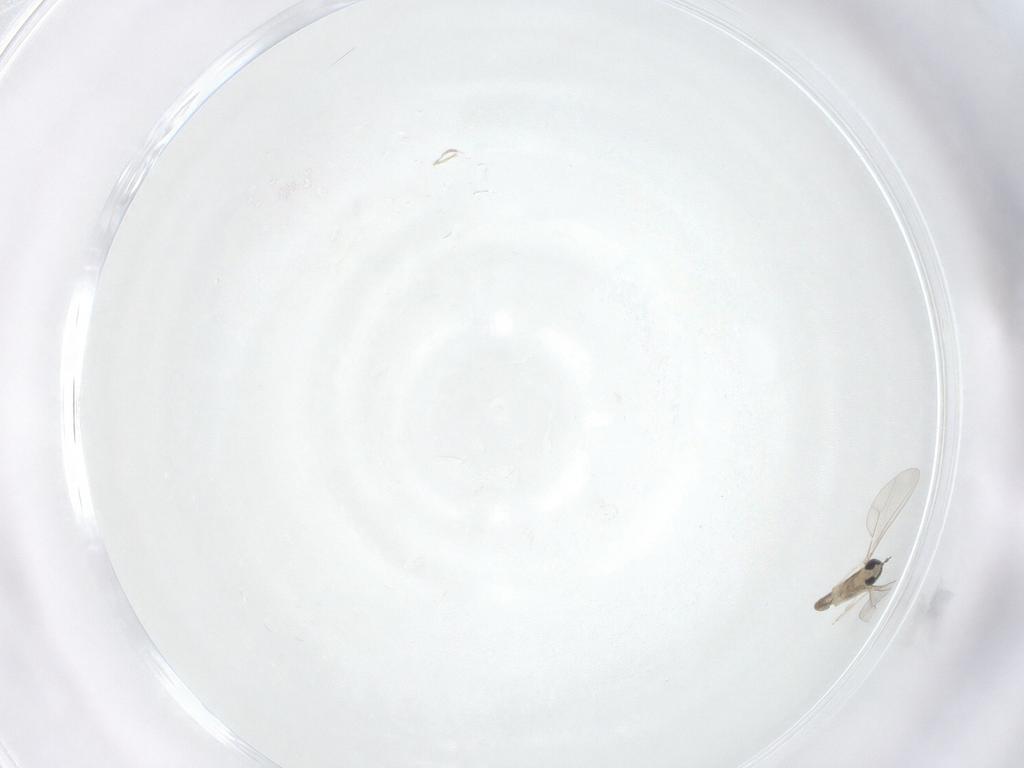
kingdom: Animalia
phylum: Arthropoda
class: Insecta
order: Diptera
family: Cecidomyiidae
